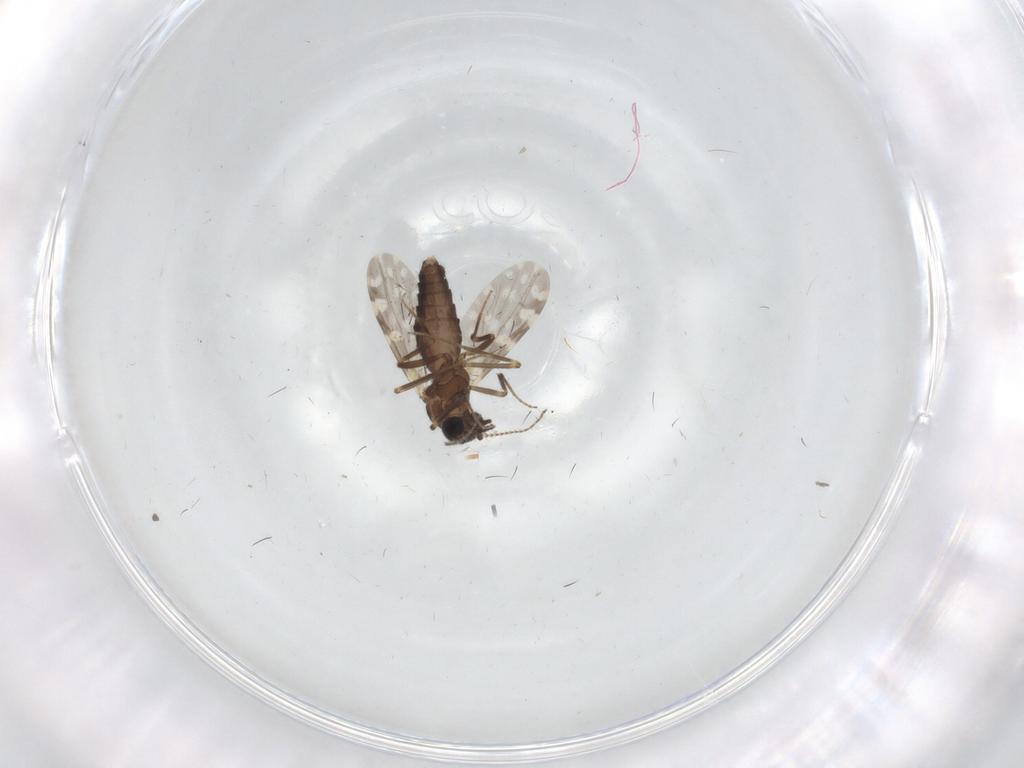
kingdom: Animalia
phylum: Arthropoda
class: Insecta
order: Diptera
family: Ceratopogonidae
